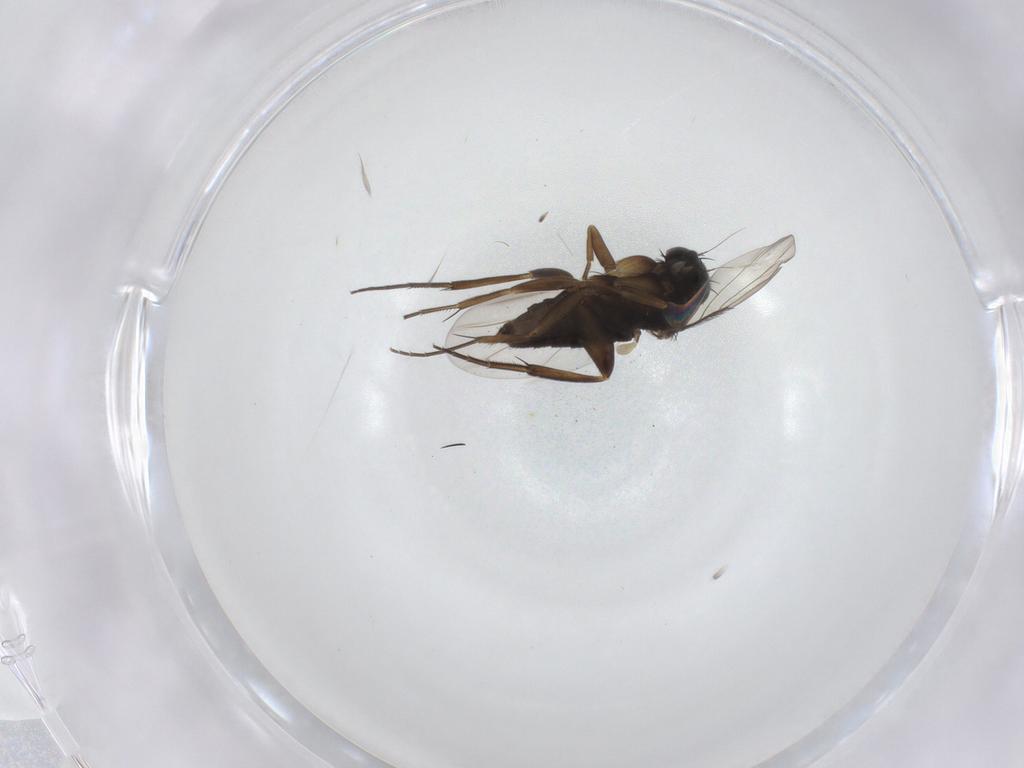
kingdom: Animalia
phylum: Arthropoda
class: Insecta
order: Diptera
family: Phoridae
